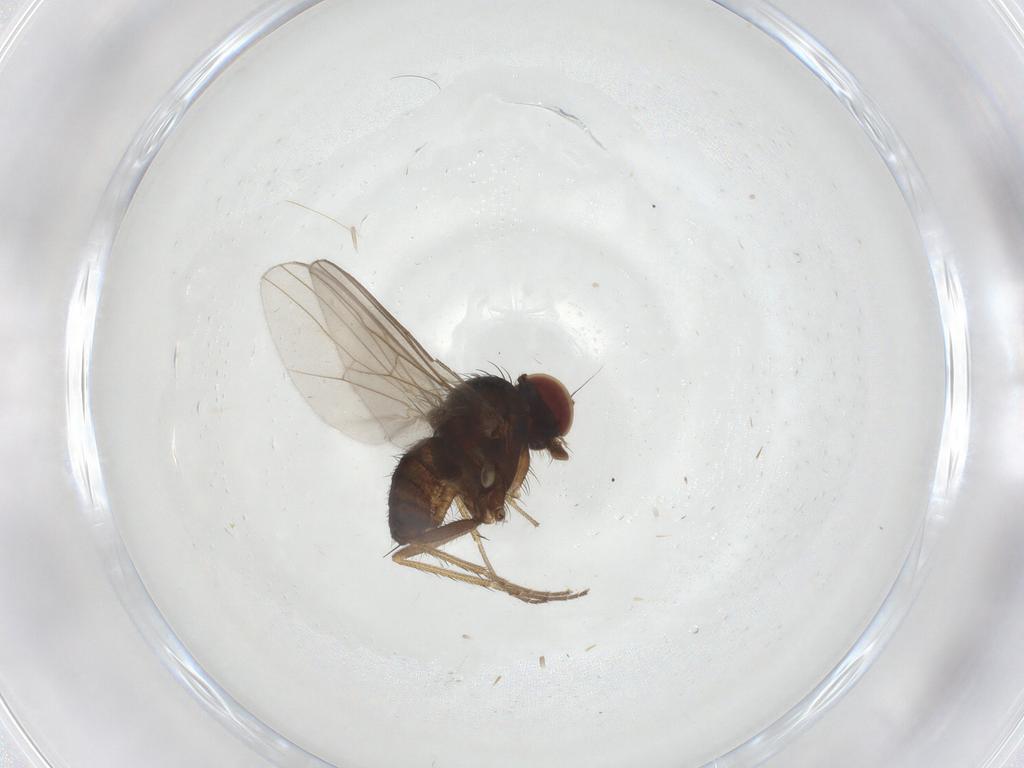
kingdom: Animalia
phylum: Arthropoda
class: Insecta
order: Diptera
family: Dolichopodidae
